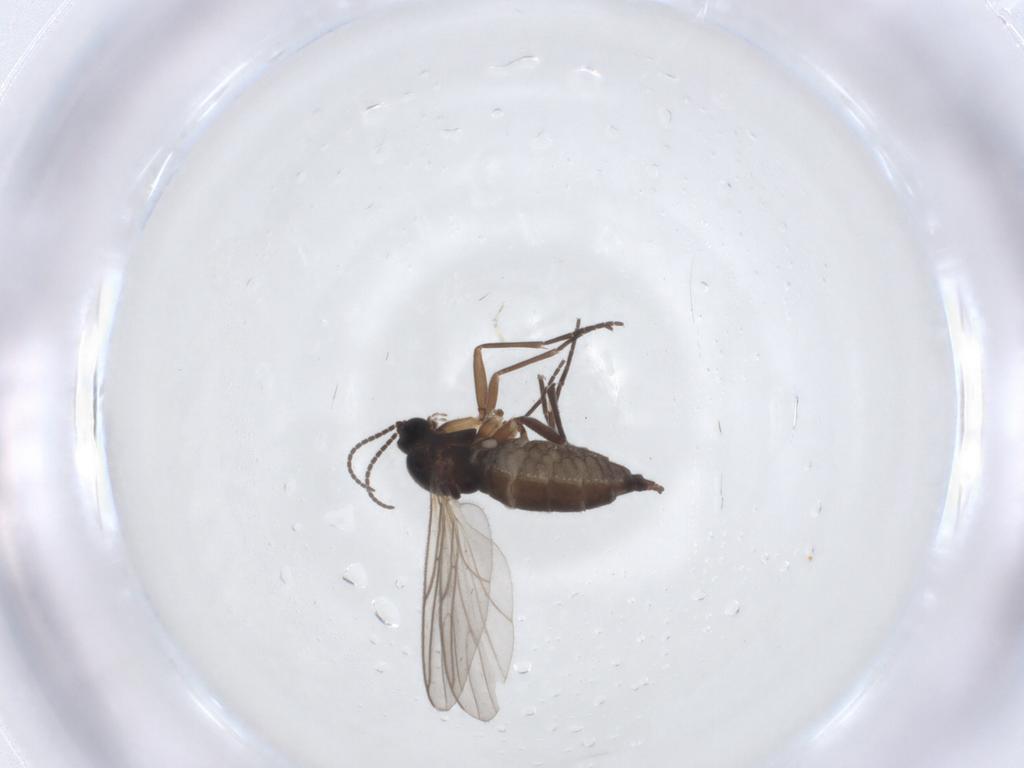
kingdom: Animalia
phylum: Arthropoda
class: Insecta
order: Diptera
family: Sciaridae
